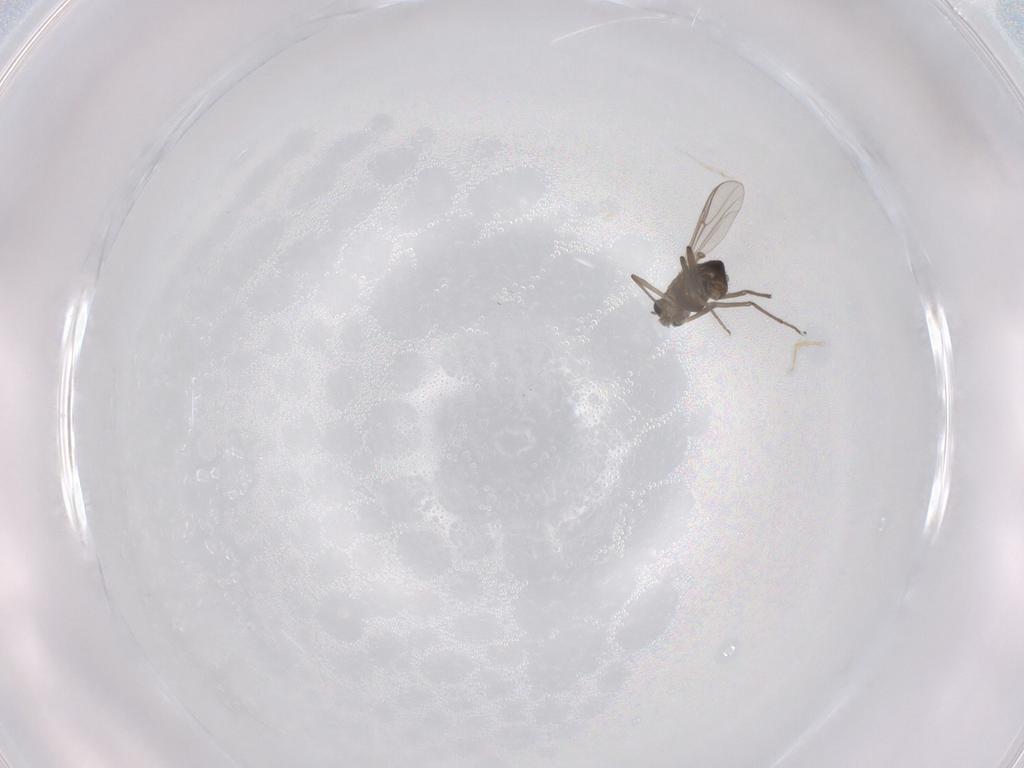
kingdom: Animalia
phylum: Arthropoda
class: Insecta
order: Diptera
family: Chironomidae
